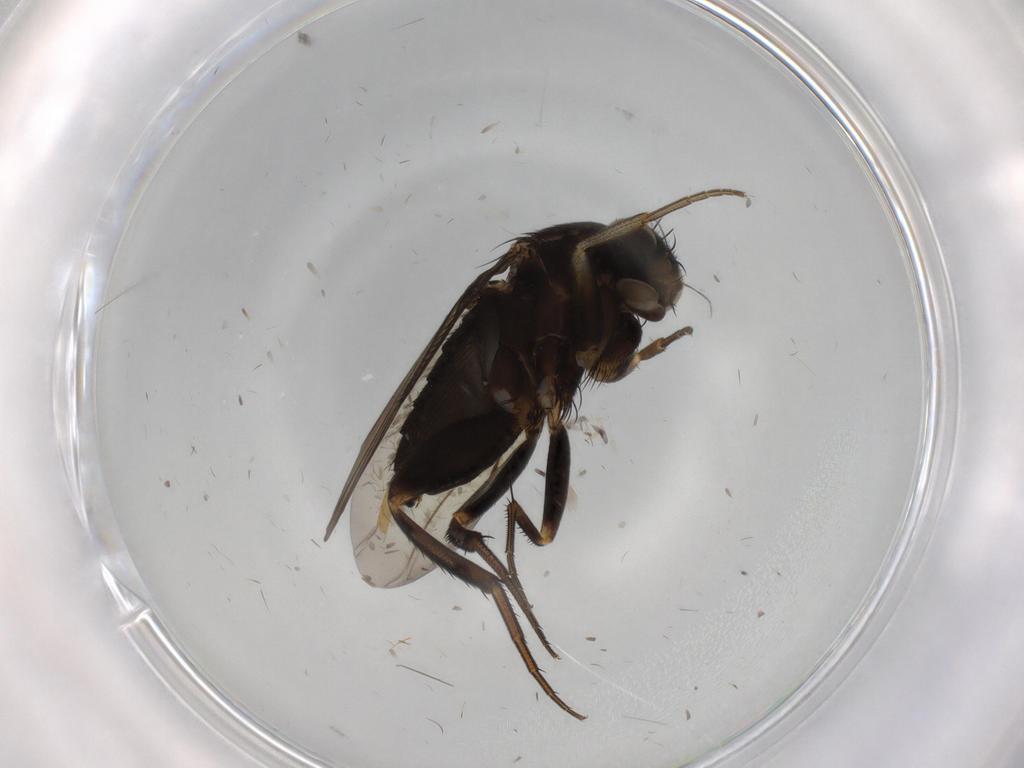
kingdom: Animalia
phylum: Arthropoda
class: Insecta
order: Diptera
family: Phoridae
